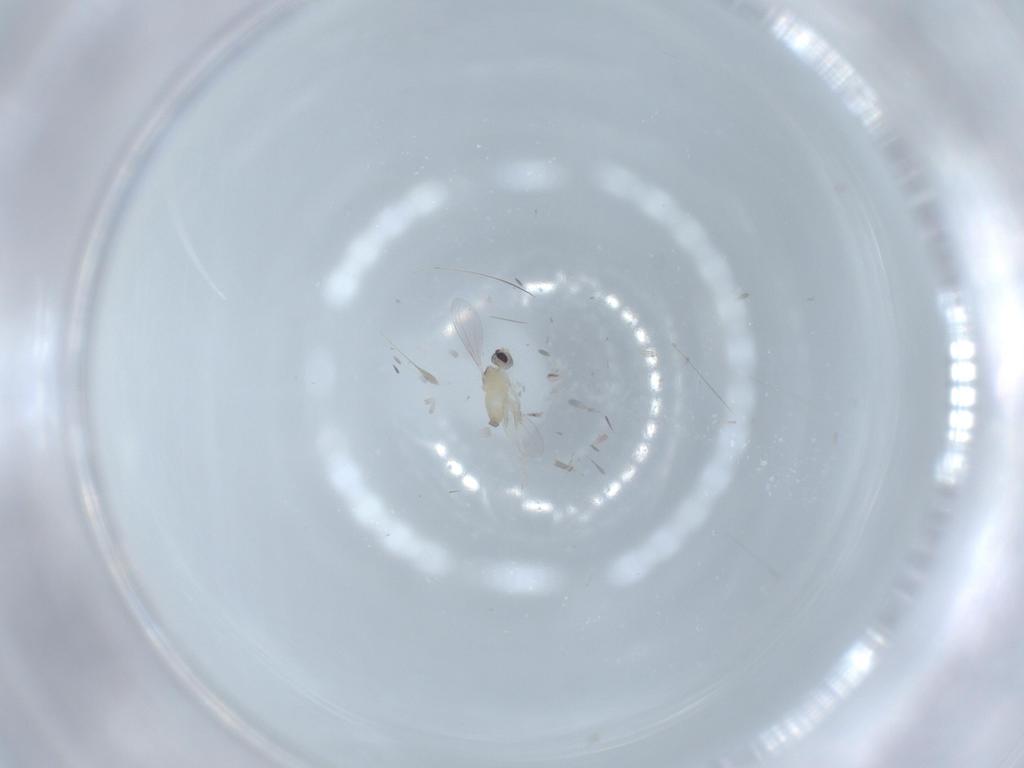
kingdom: Animalia
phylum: Arthropoda
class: Insecta
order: Diptera
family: Cecidomyiidae
